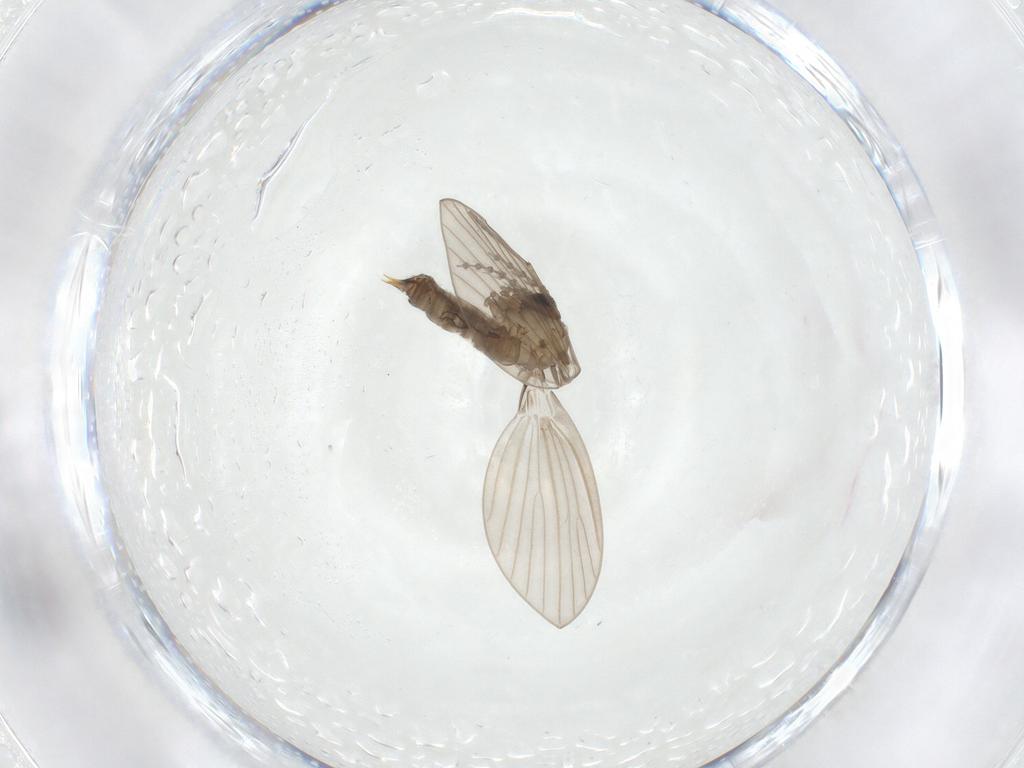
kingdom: Animalia
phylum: Arthropoda
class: Insecta
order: Diptera
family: Psychodidae
